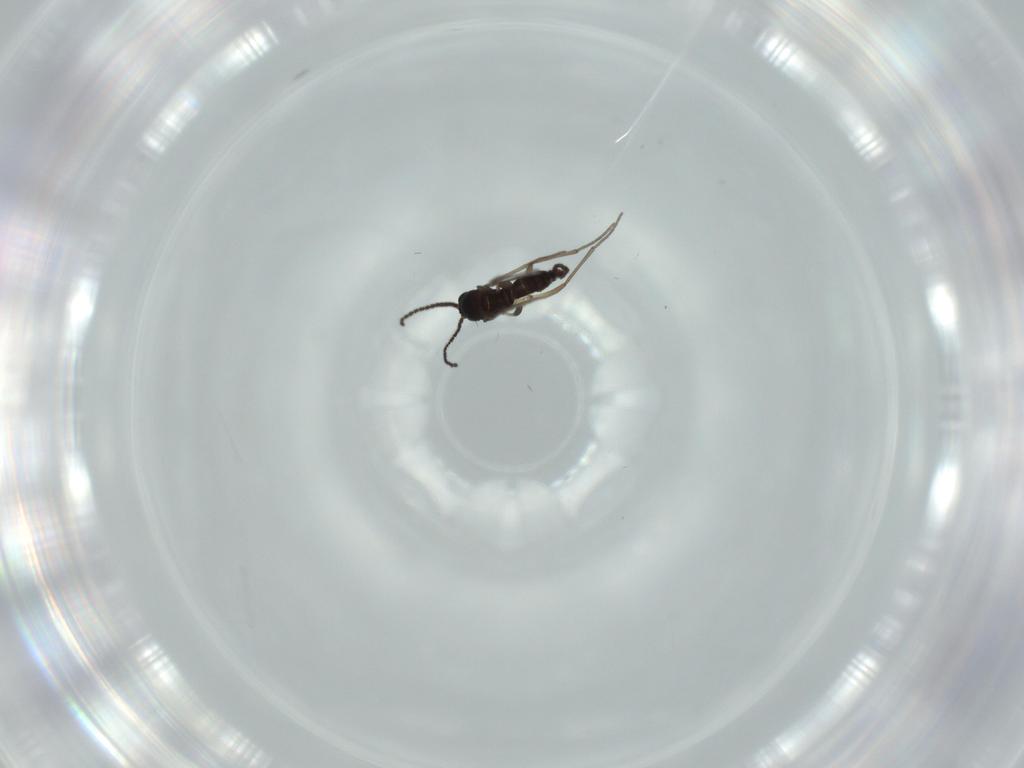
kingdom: Animalia
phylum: Arthropoda
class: Insecta
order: Diptera
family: Sciaridae
